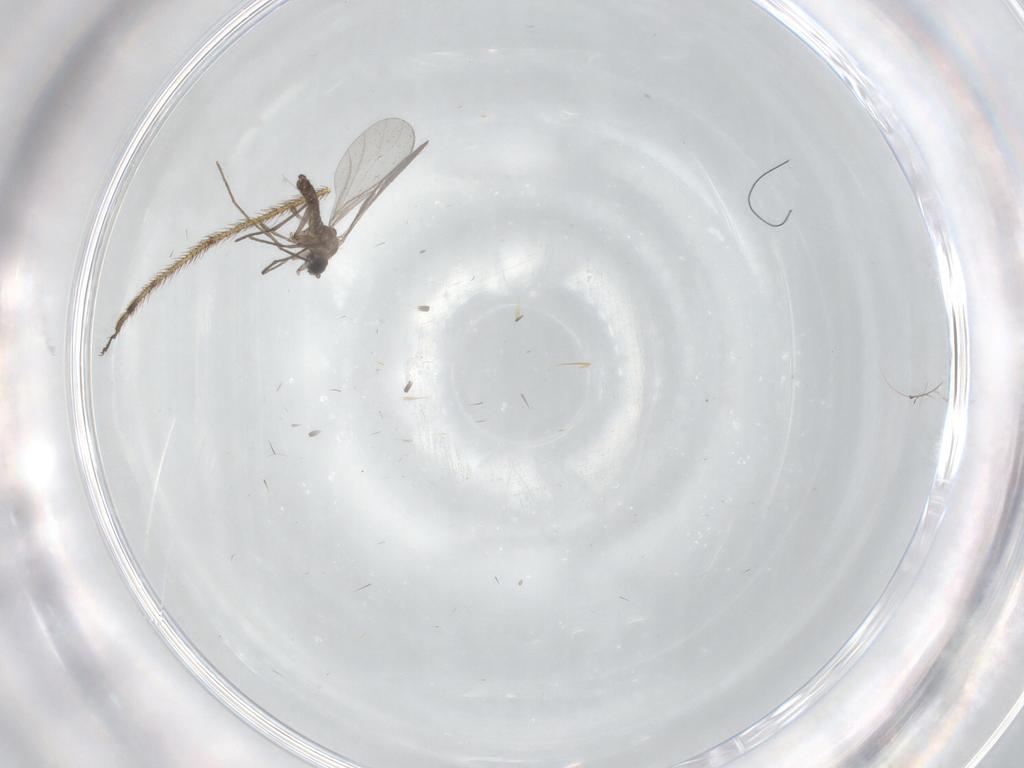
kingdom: Animalia
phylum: Arthropoda
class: Insecta
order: Diptera
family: Limoniidae
